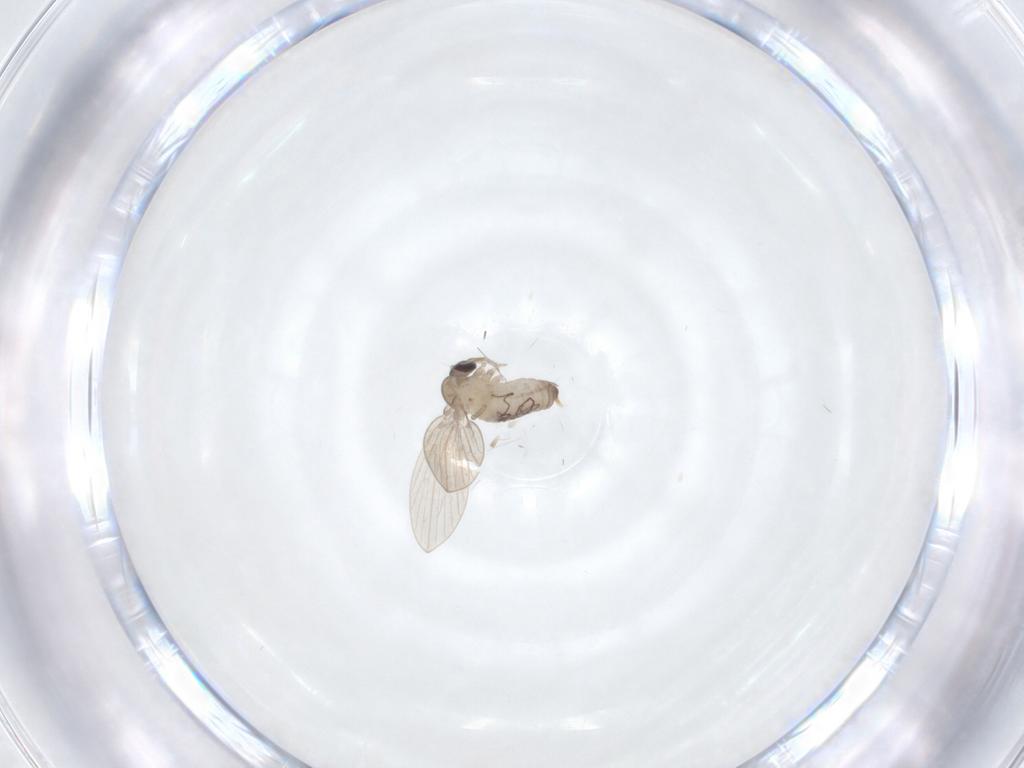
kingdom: Animalia
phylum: Arthropoda
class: Insecta
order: Diptera
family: Psychodidae
